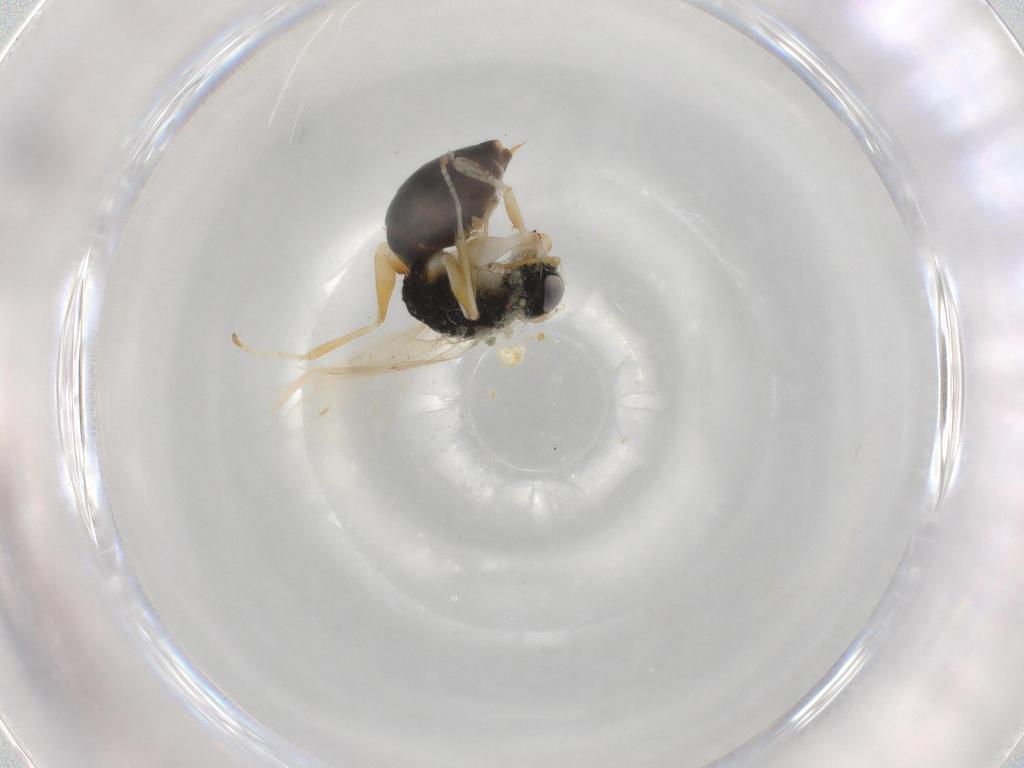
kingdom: Animalia
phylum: Arthropoda
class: Insecta
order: Hymenoptera
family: Dryinidae
